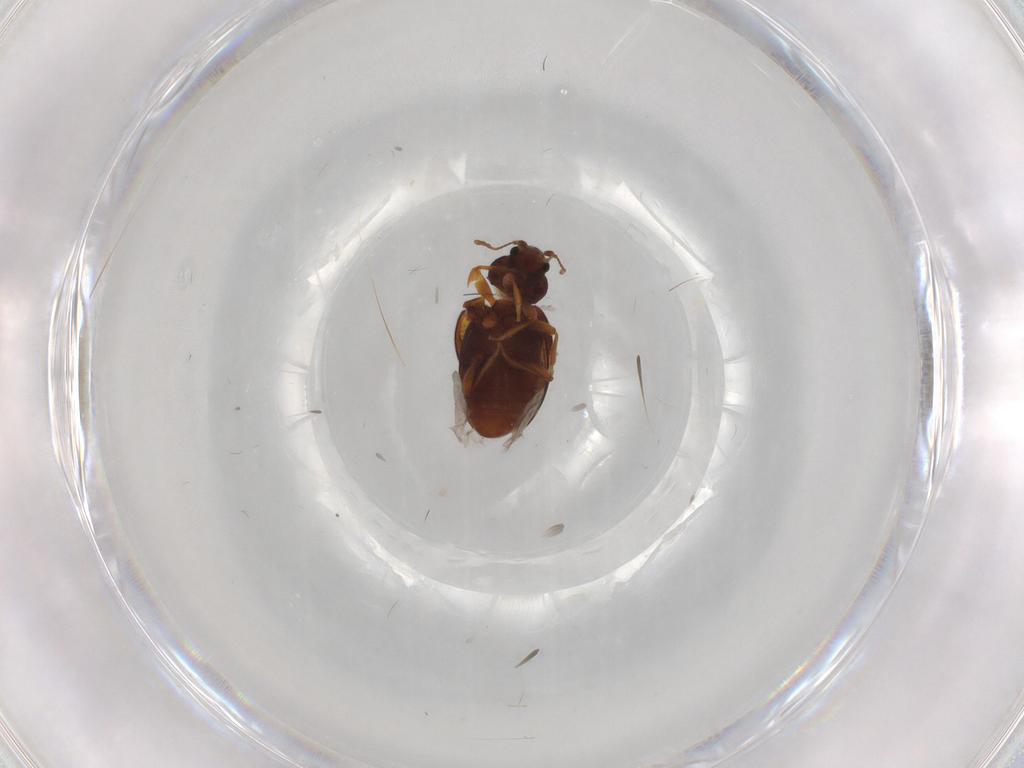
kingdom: Animalia
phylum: Arthropoda
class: Insecta
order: Coleoptera
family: Latridiidae
